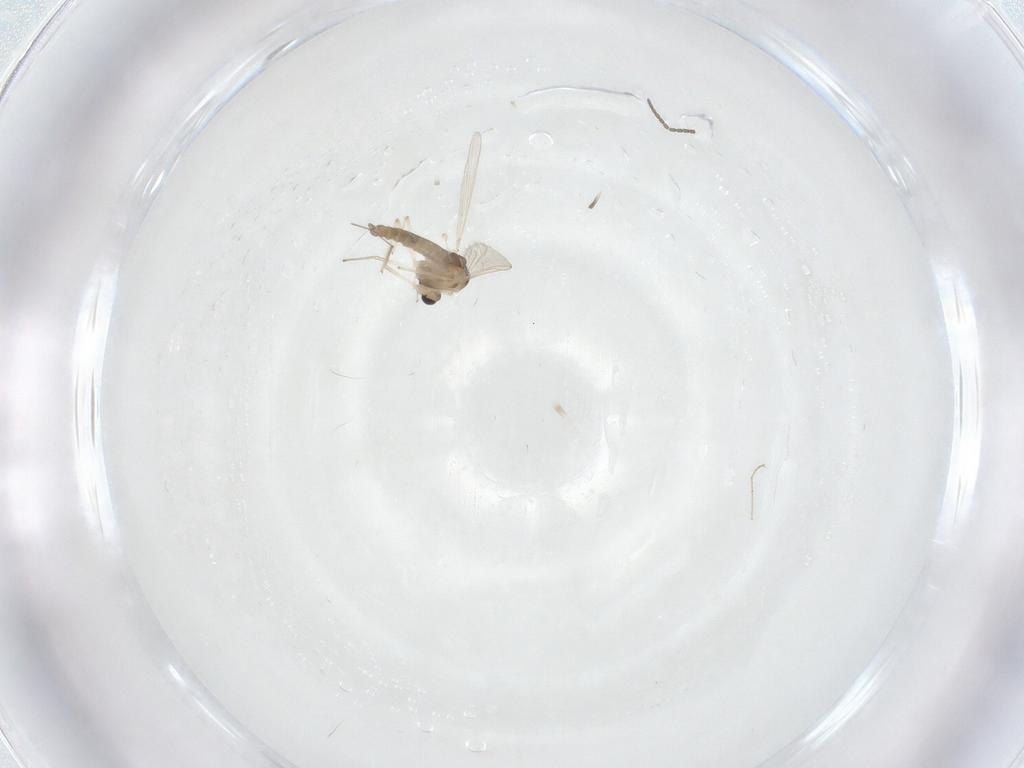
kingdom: Animalia
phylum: Arthropoda
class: Insecta
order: Diptera
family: Chironomidae
